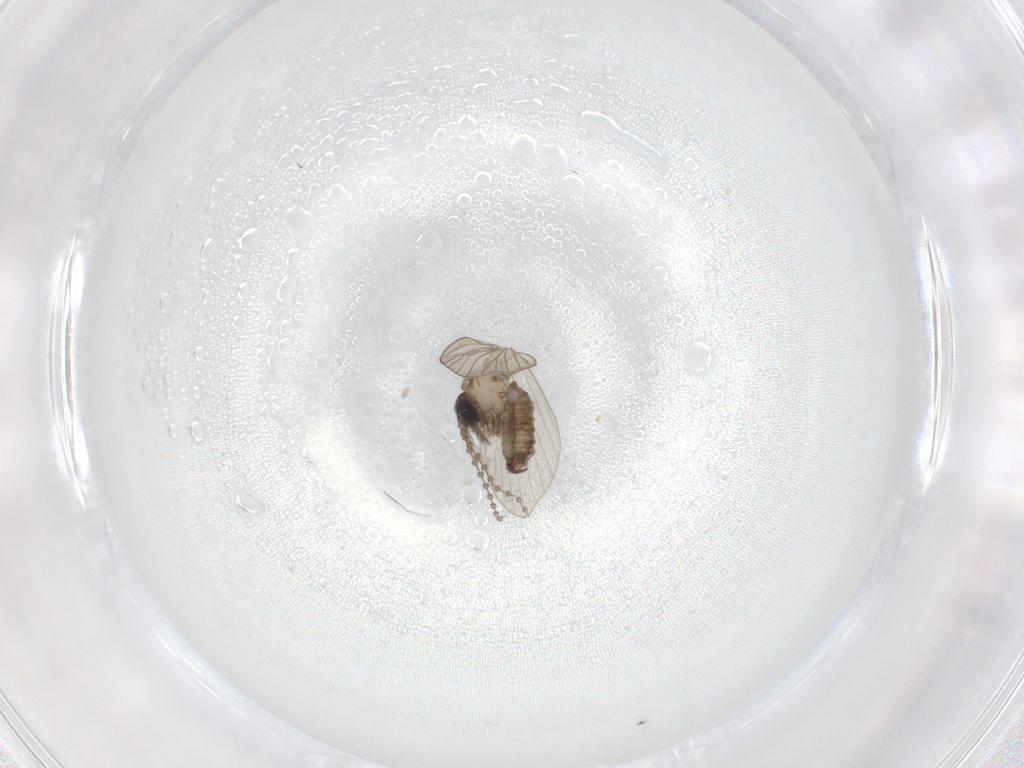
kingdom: Animalia
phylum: Arthropoda
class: Insecta
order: Diptera
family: Psychodidae
